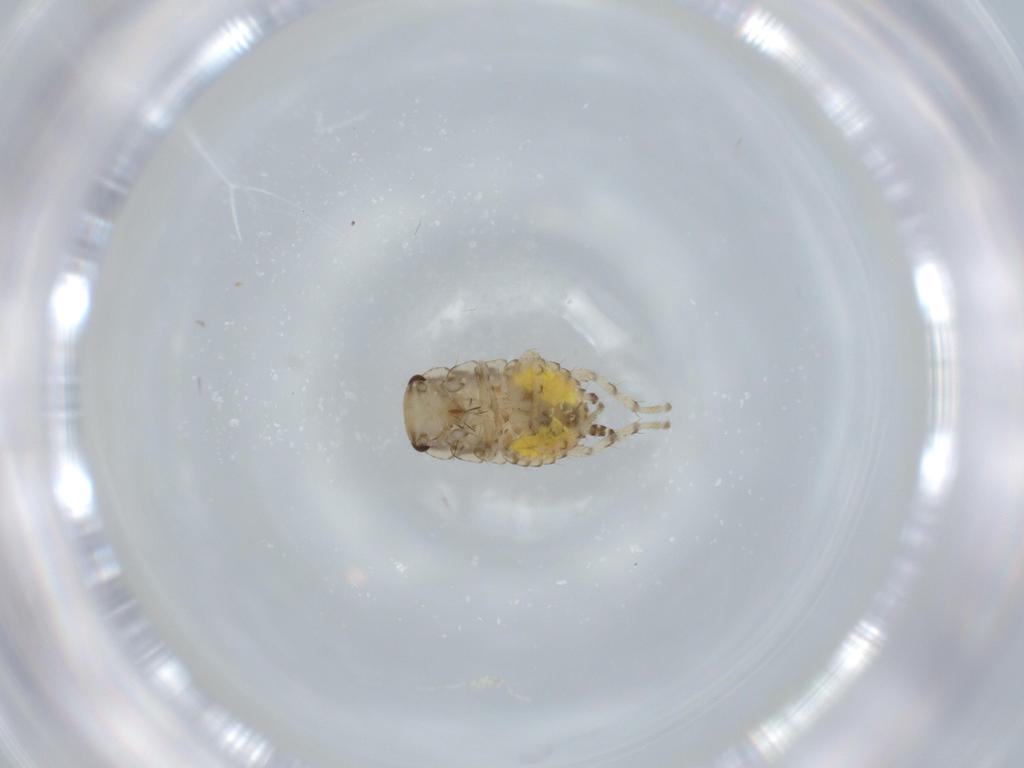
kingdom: Animalia
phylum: Arthropoda
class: Insecta
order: Blattodea
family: Ectobiidae
